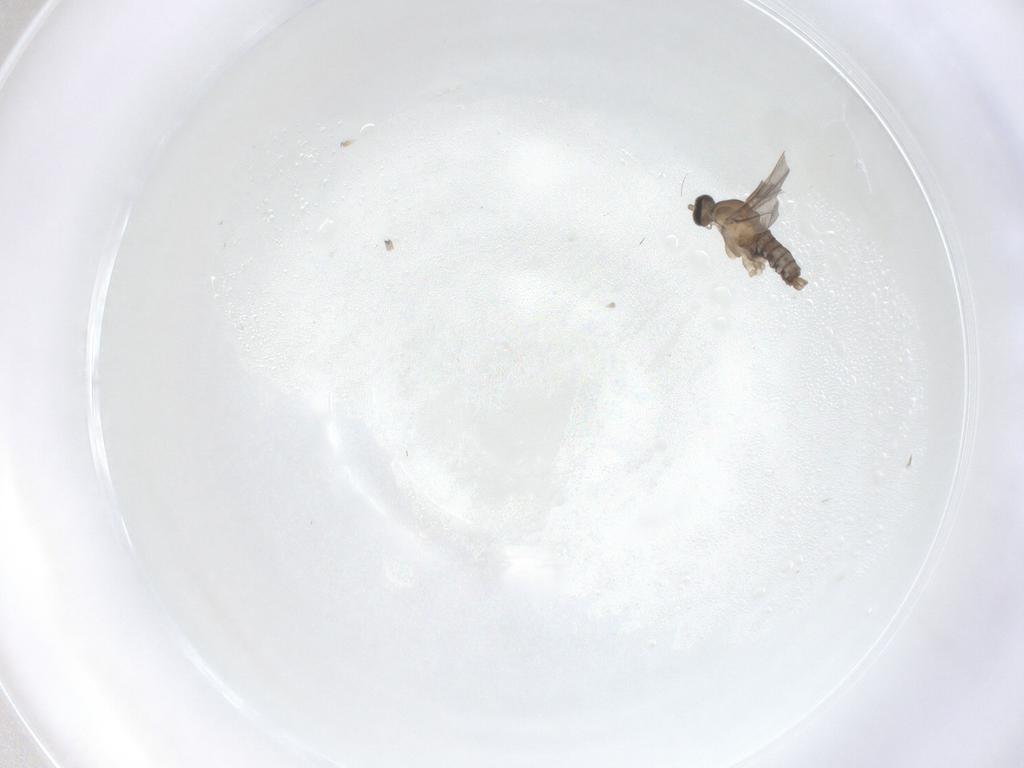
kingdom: Animalia
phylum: Arthropoda
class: Insecta
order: Diptera
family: Cecidomyiidae
